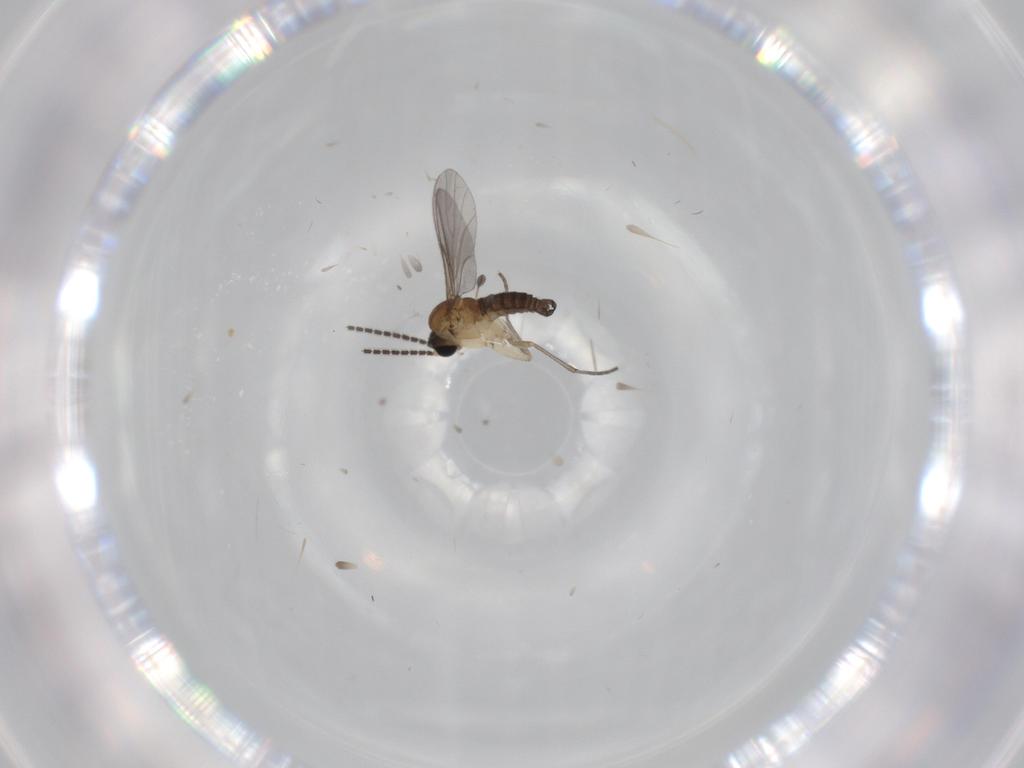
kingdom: Animalia
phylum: Arthropoda
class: Insecta
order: Diptera
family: Sciaridae
